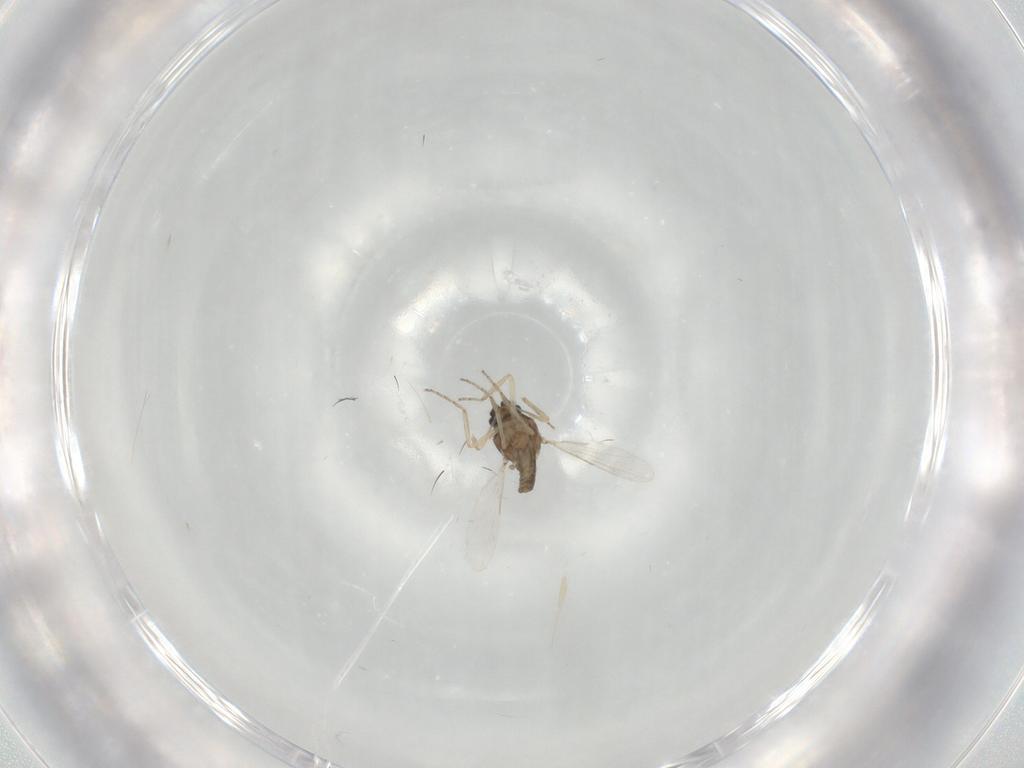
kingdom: Animalia
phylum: Arthropoda
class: Insecta
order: Diptera
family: Ceratopogonidae
